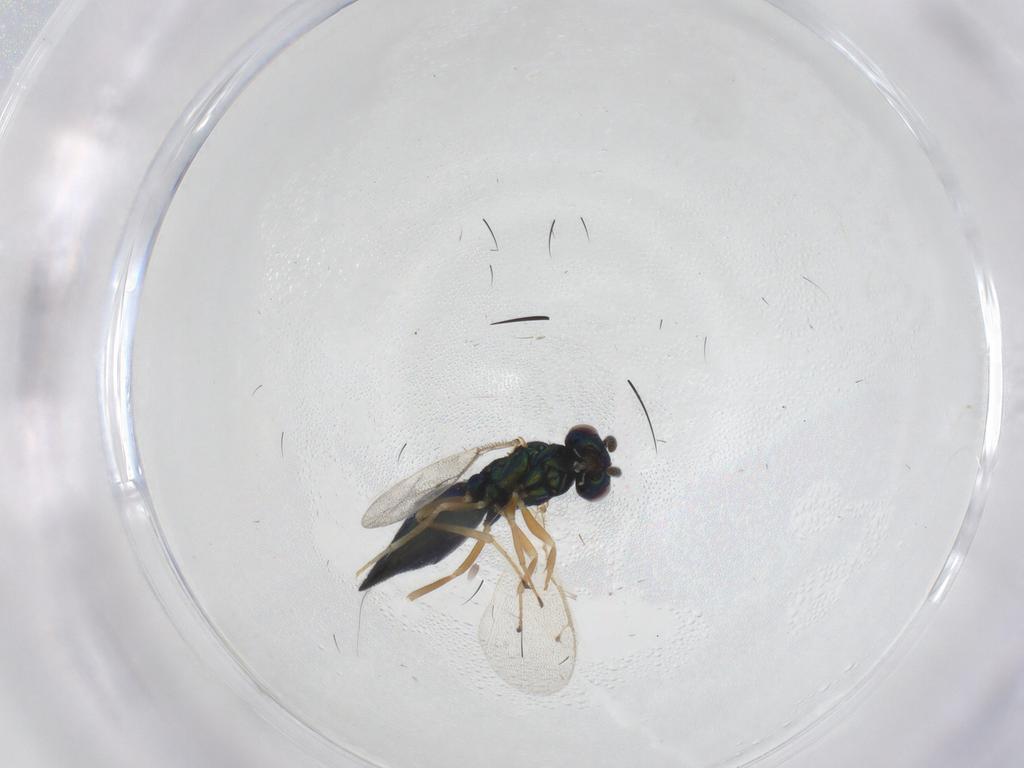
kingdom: Animalia
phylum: Arthropoda
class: Insecta
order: Hymenoptera
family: Pteromalidae
